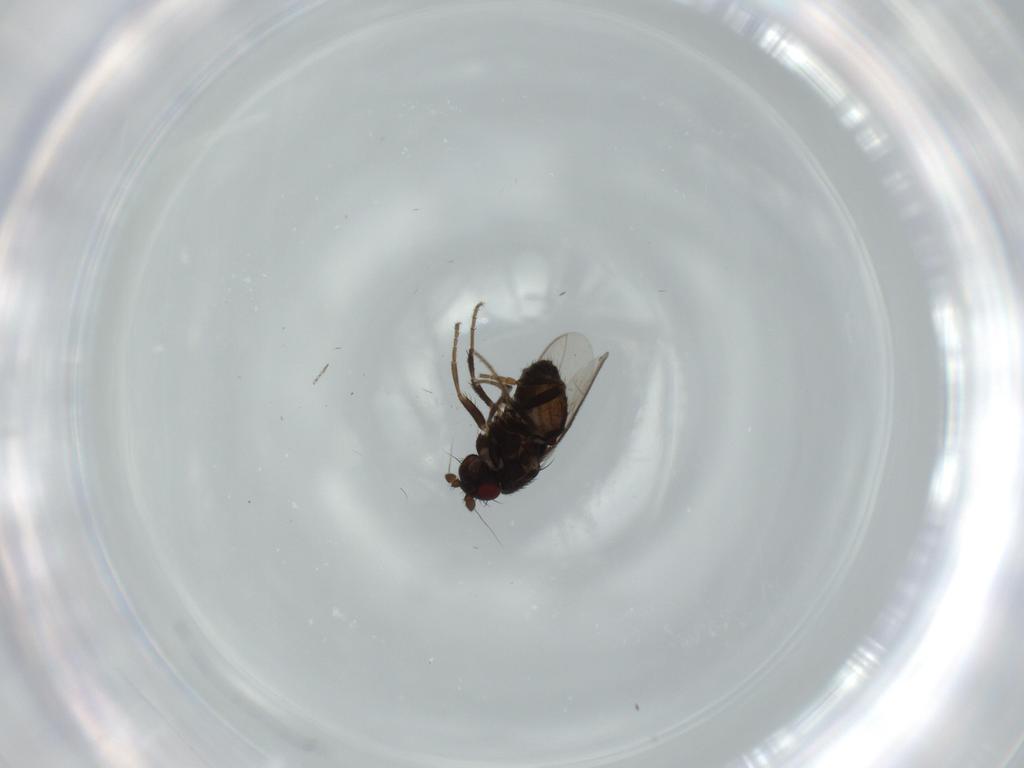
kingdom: Animalia
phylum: Arthropoda
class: Insecta
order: Diptera
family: Sphaeroceridae
